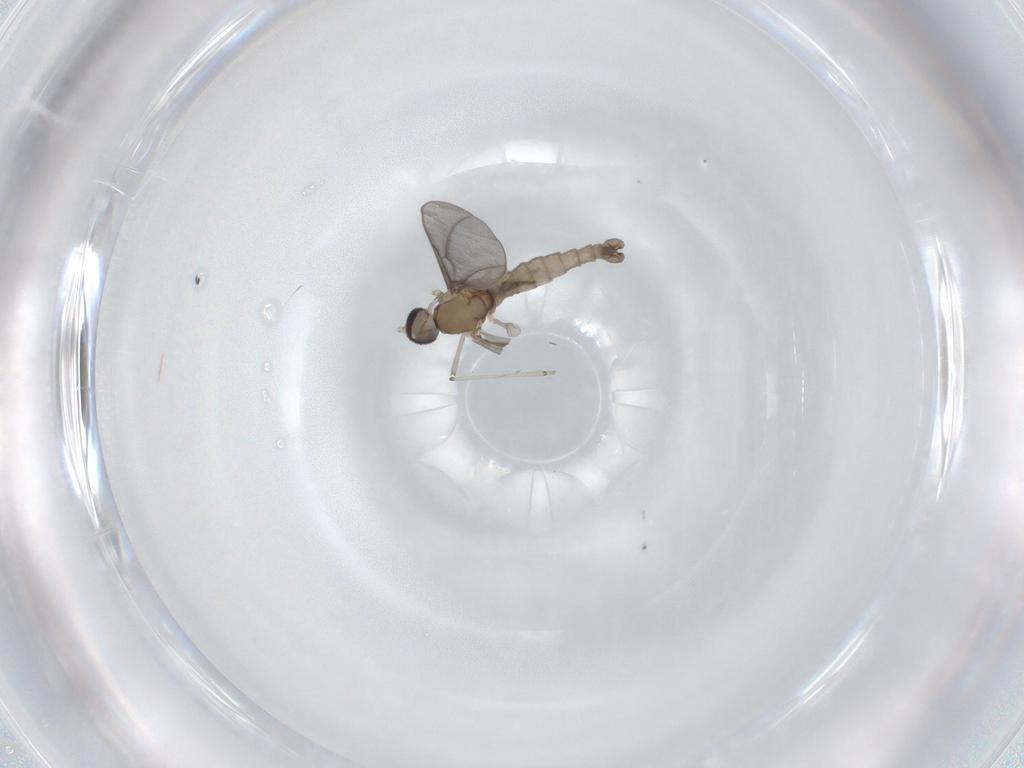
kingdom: Animalia
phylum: Arthropoda
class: Insecta
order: Diptera
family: Cecidomyiidae
